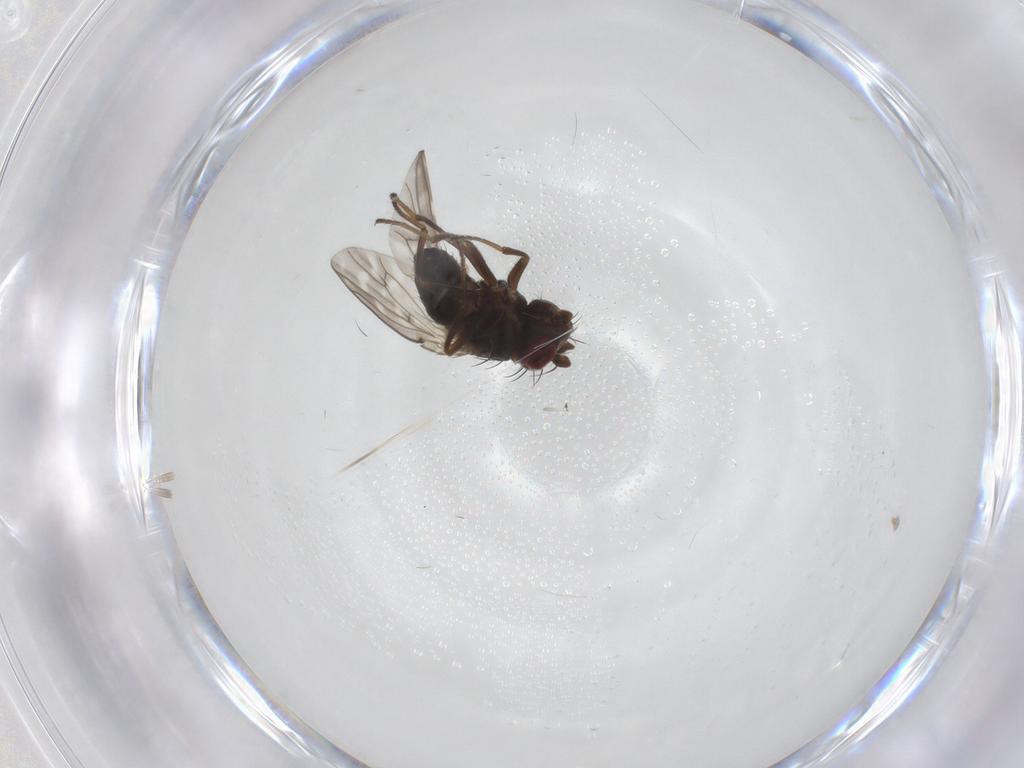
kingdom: Animalia
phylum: Arthropoda
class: Insecta
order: Diptera
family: Ephydridae
